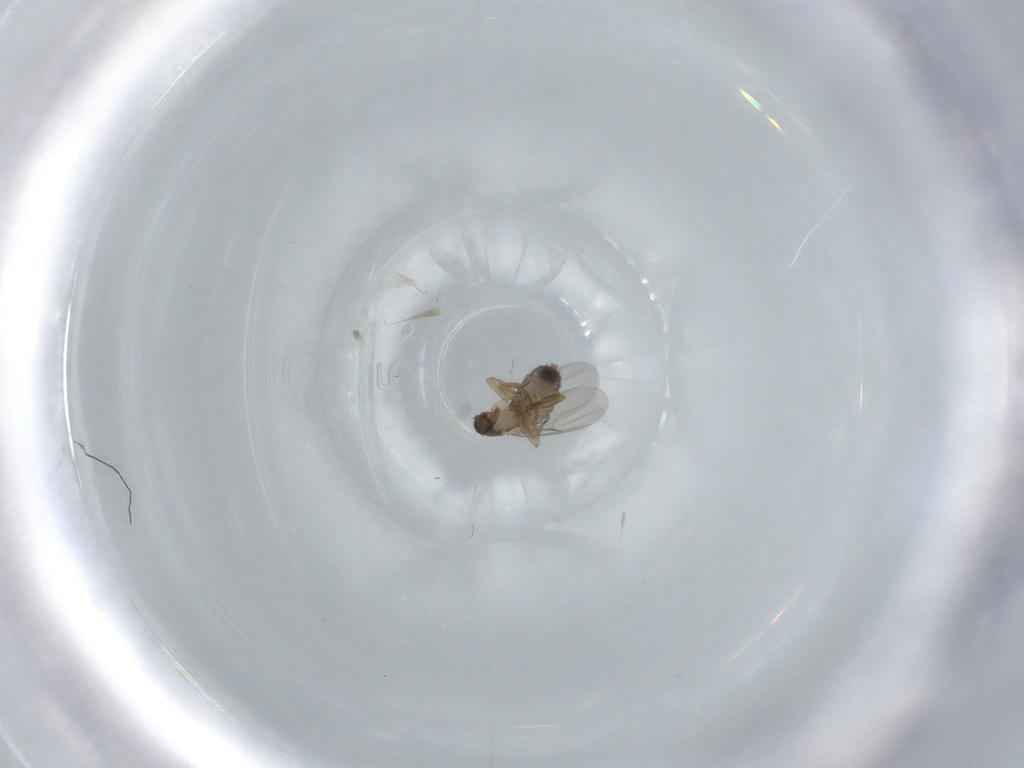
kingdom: Animalia
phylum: Arthropoda
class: Insecta
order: Diptera
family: Phoridae
